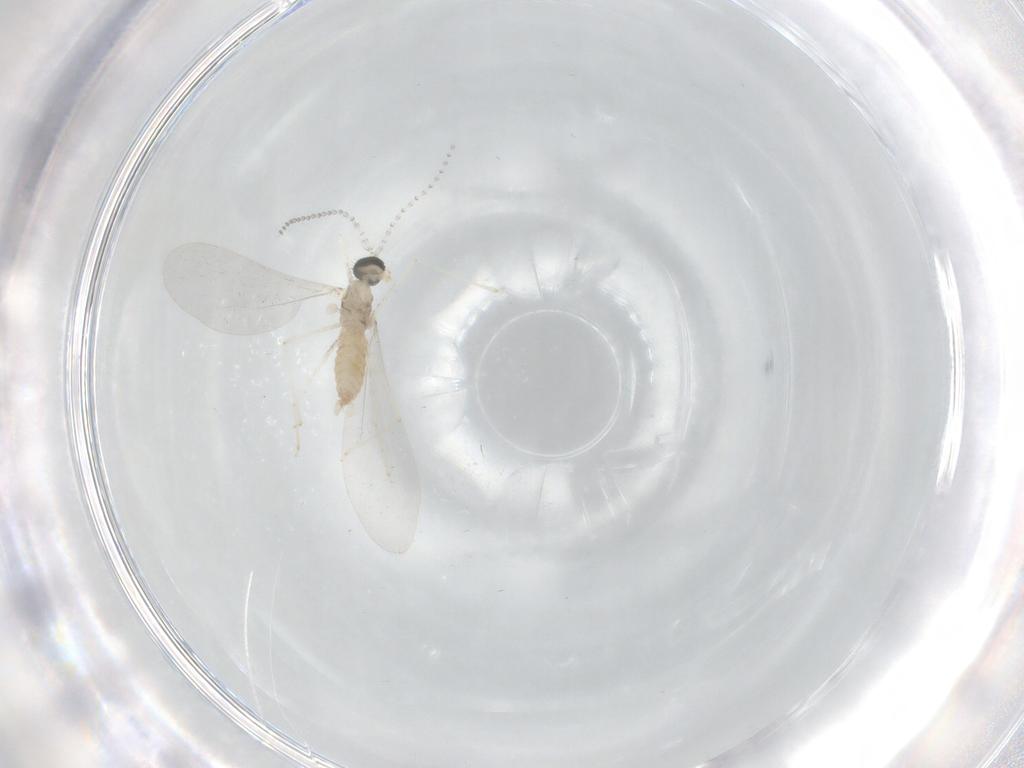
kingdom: Animalia
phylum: Arthropoda
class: Insecta
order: Diptera
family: Cecidomyiidae
